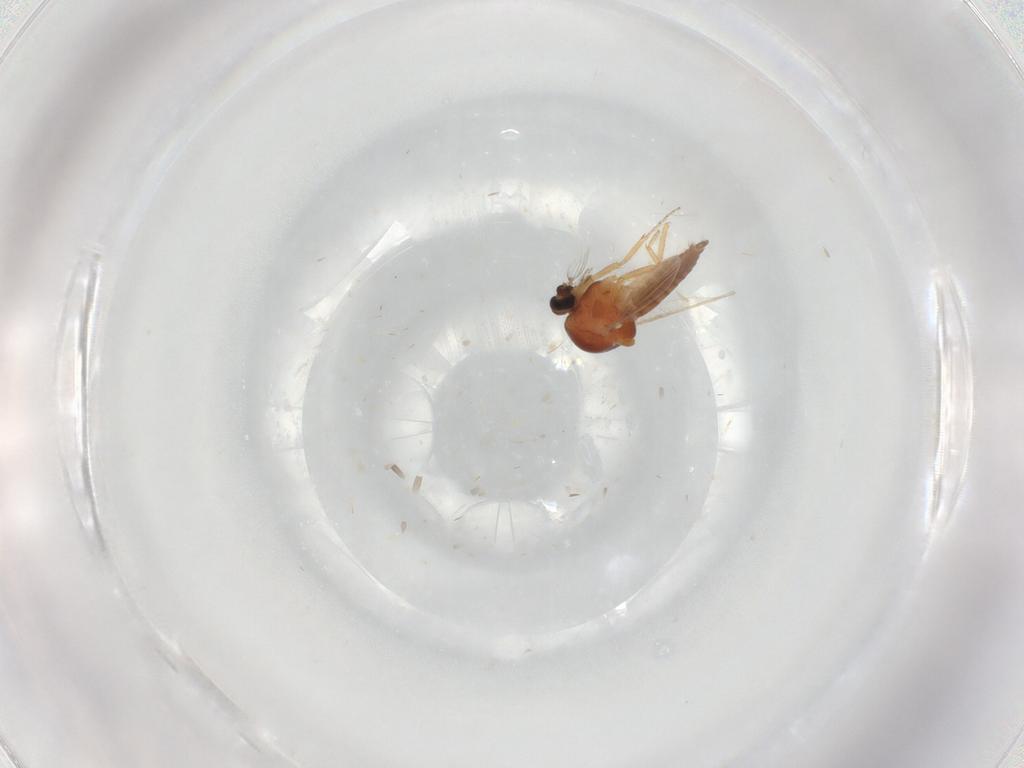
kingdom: Animalia
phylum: Arthropoda
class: Insecta
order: Diptera
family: Ceratopogonidae
